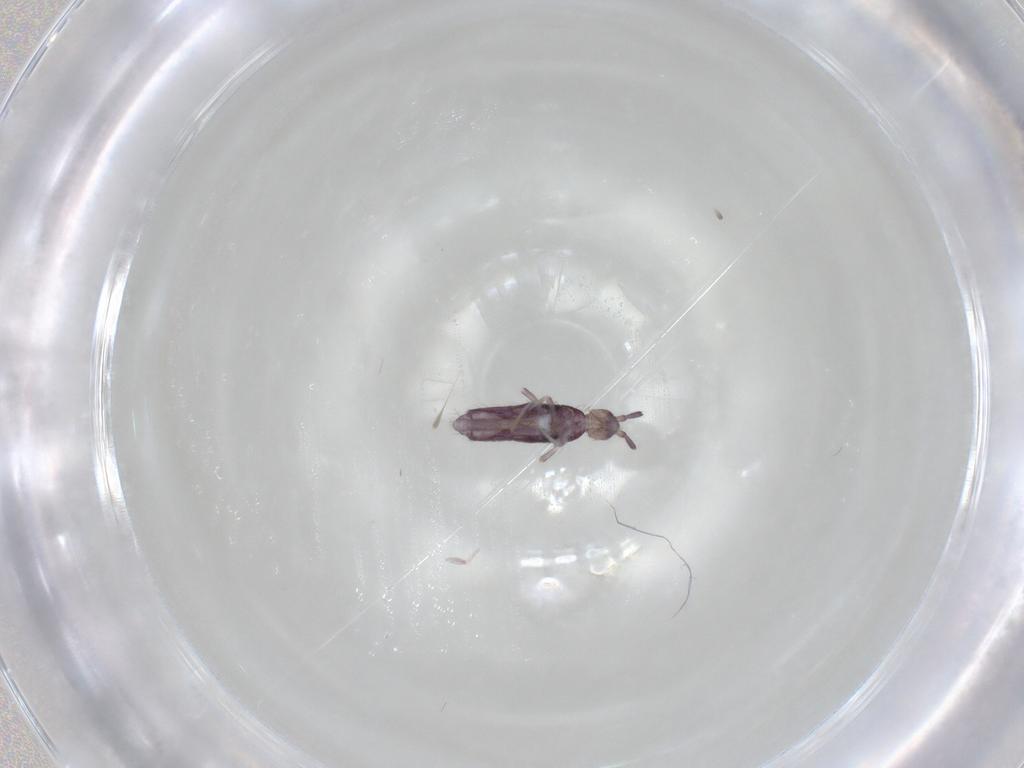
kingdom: Animalia
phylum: Arthropoda
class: Collembola
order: Entomobryomorpha
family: Entomobryidae
